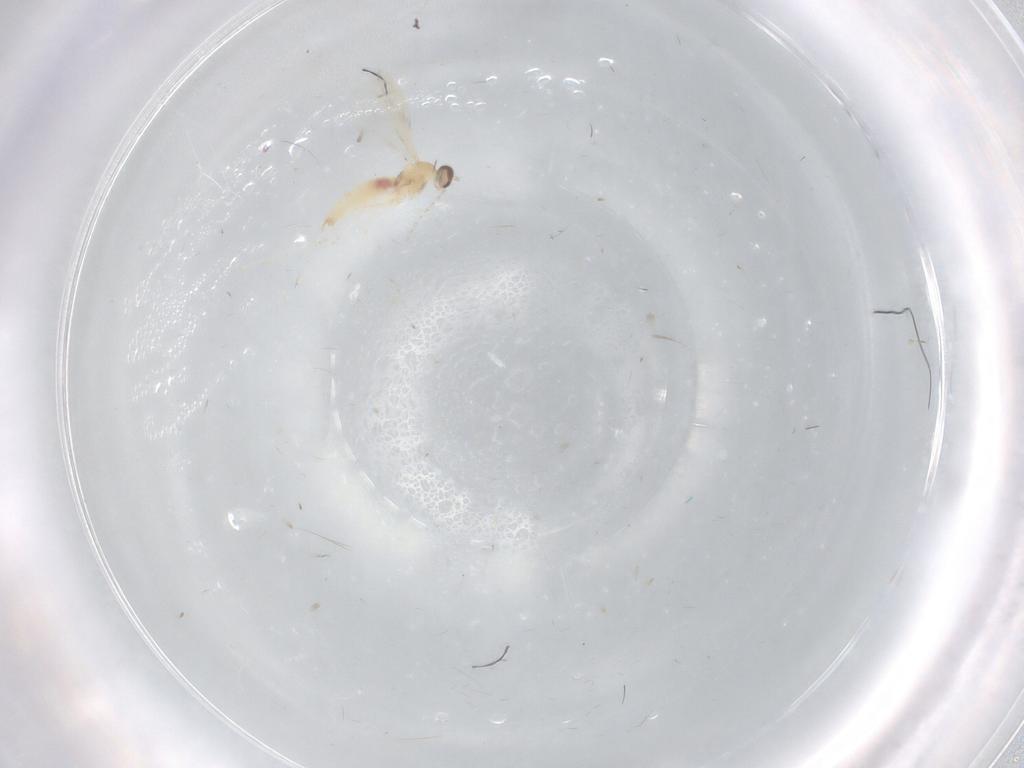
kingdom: Animalia
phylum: Arthropoda
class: Insecta
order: Diptera
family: Cecidomyiidae
